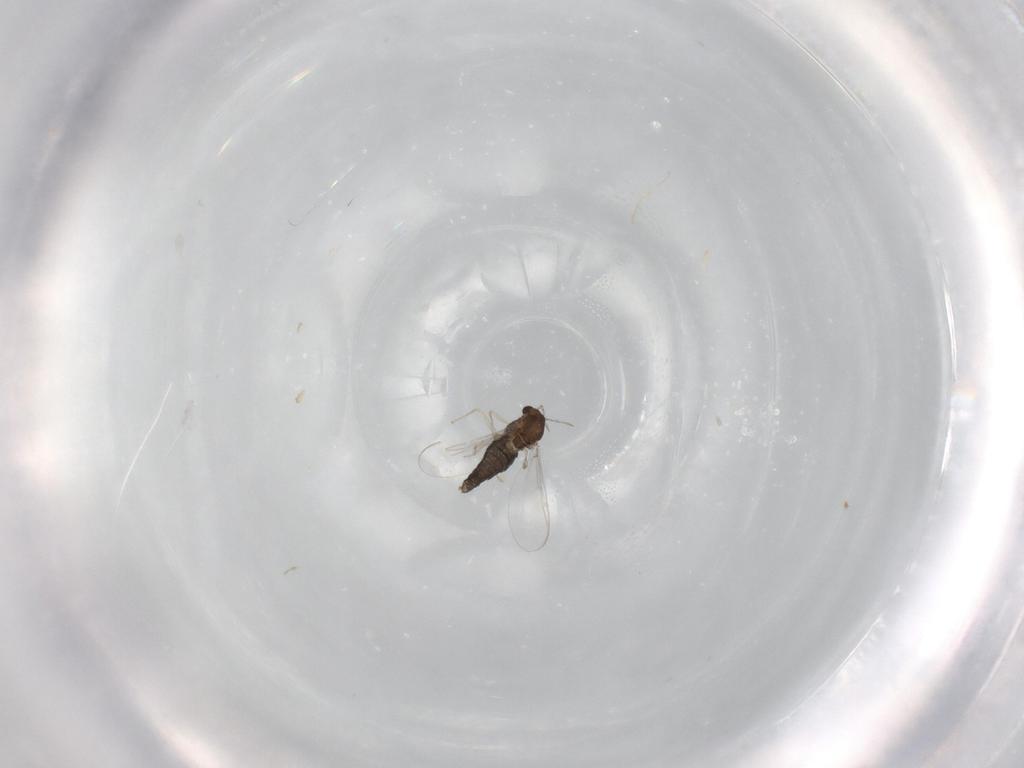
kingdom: Animalia
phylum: Arthropoda
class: Insecta
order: Diptera
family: Chironomidae
